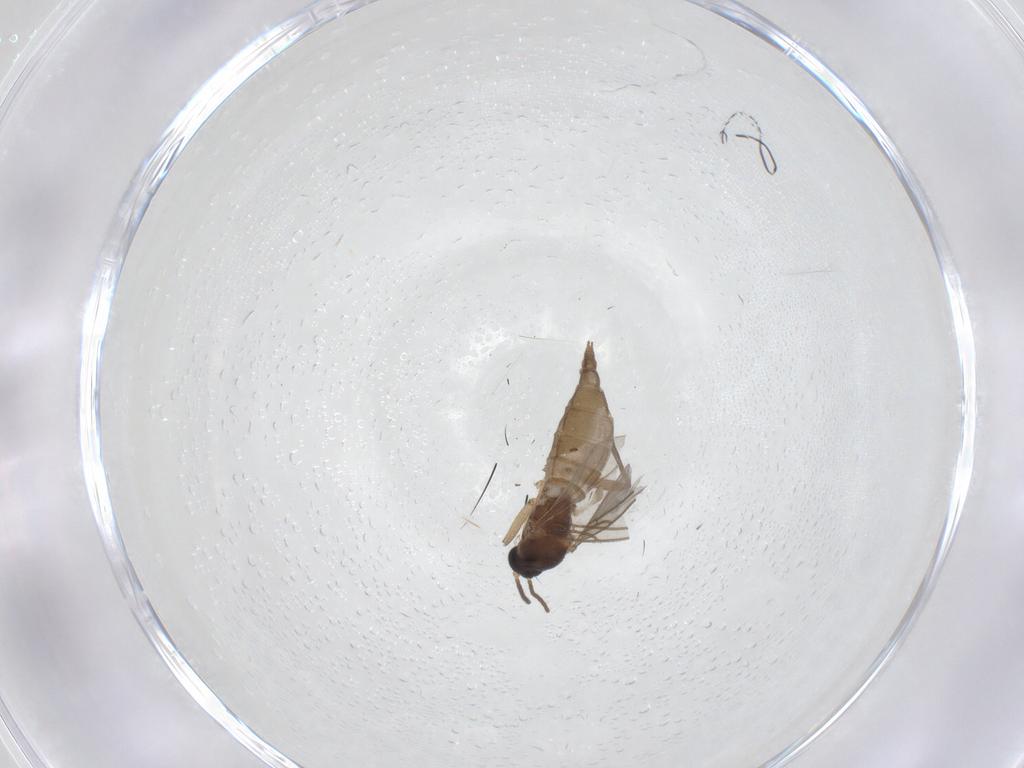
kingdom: Animalia
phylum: Arthropoda
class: Insecta
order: Diptera
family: Sciaridae
